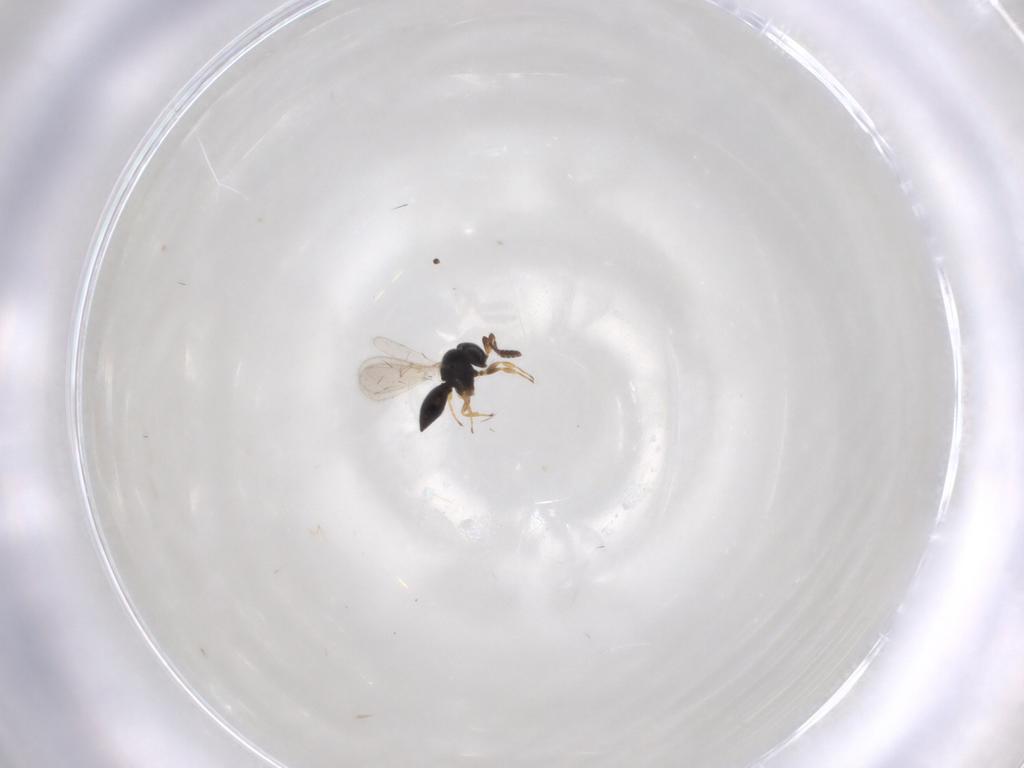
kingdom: Animalia
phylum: Arthropoda
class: Insecta
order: Hymenoptera
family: Scelionidae
